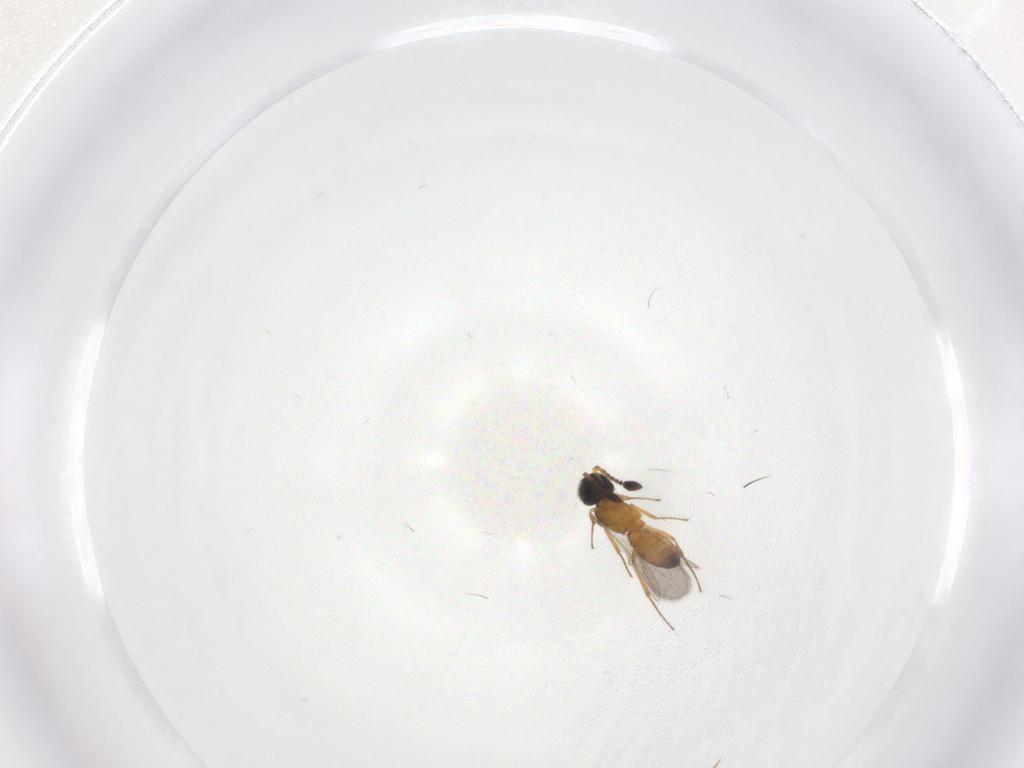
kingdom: Animalia
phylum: Arthropoda
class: Insecta
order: Hymenoptera
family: Scelionidae
